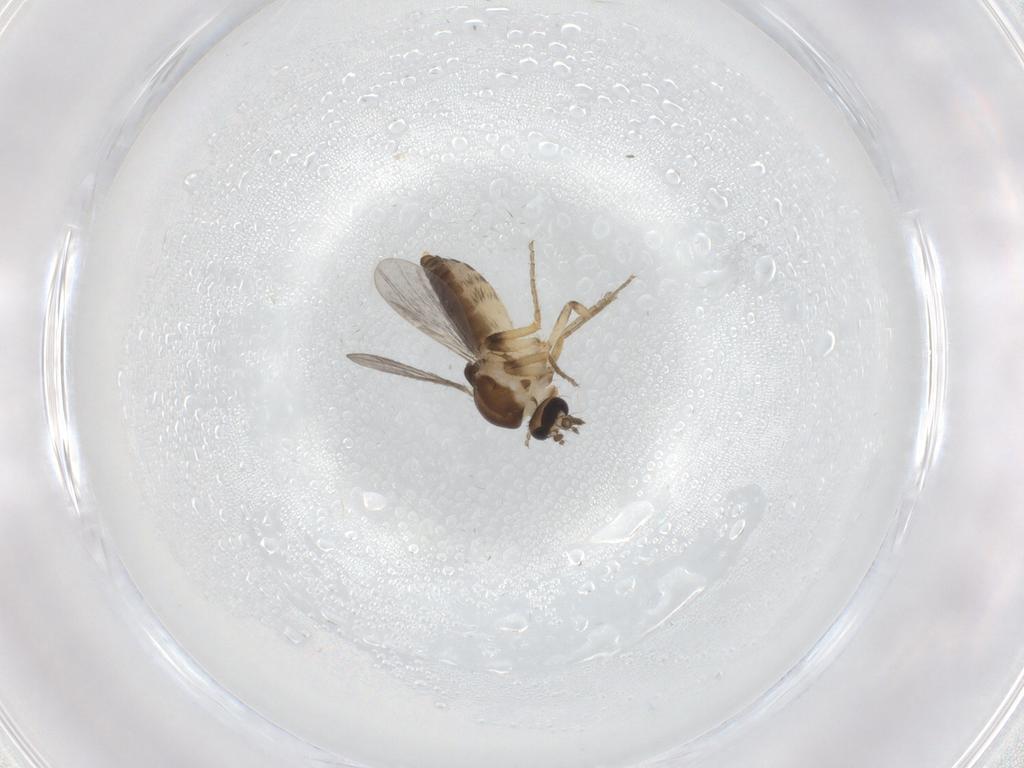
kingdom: Animalia
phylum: Arthropoda
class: Insecta
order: Diptera
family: Ceratopogonidae
